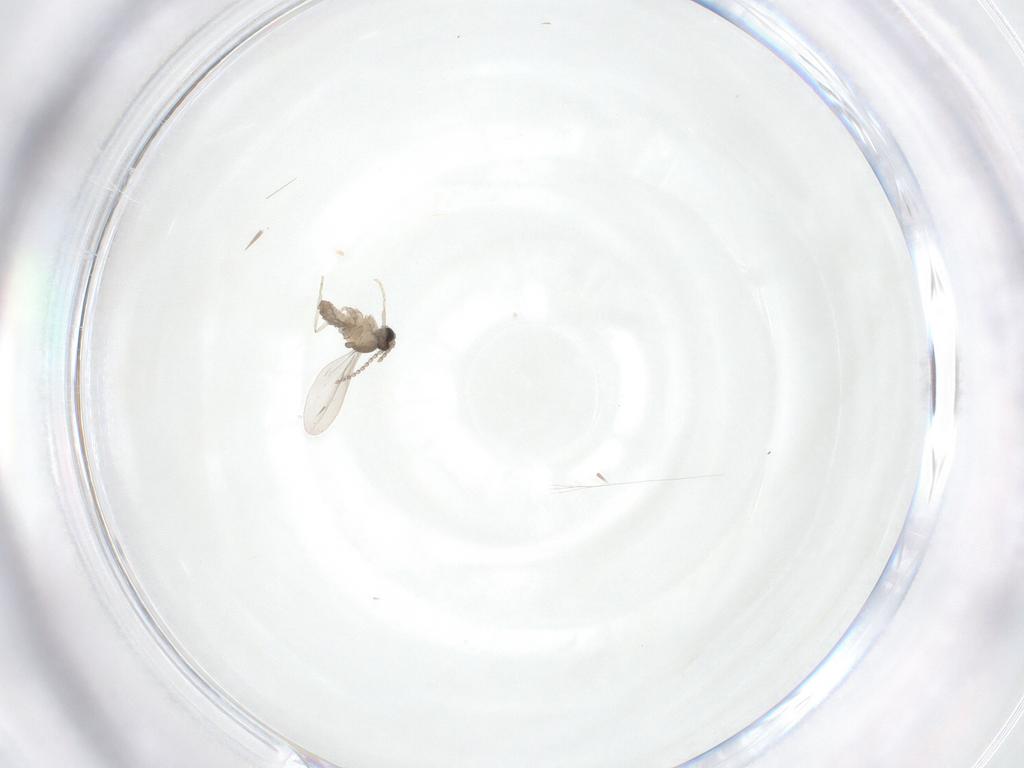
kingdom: Animalia
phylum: Arthropoda
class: Insecta
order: Diptera
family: Cecidomyiidae
